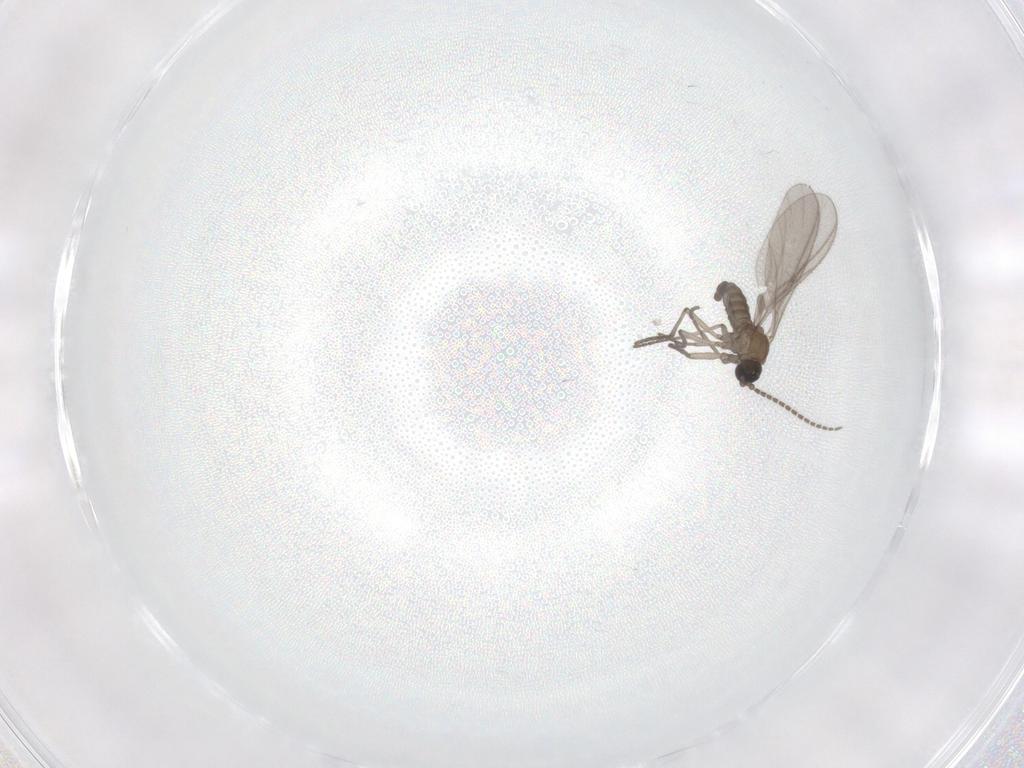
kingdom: Animalia
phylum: Arthropoda
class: Insecta
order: Diptera
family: Sciaridae
